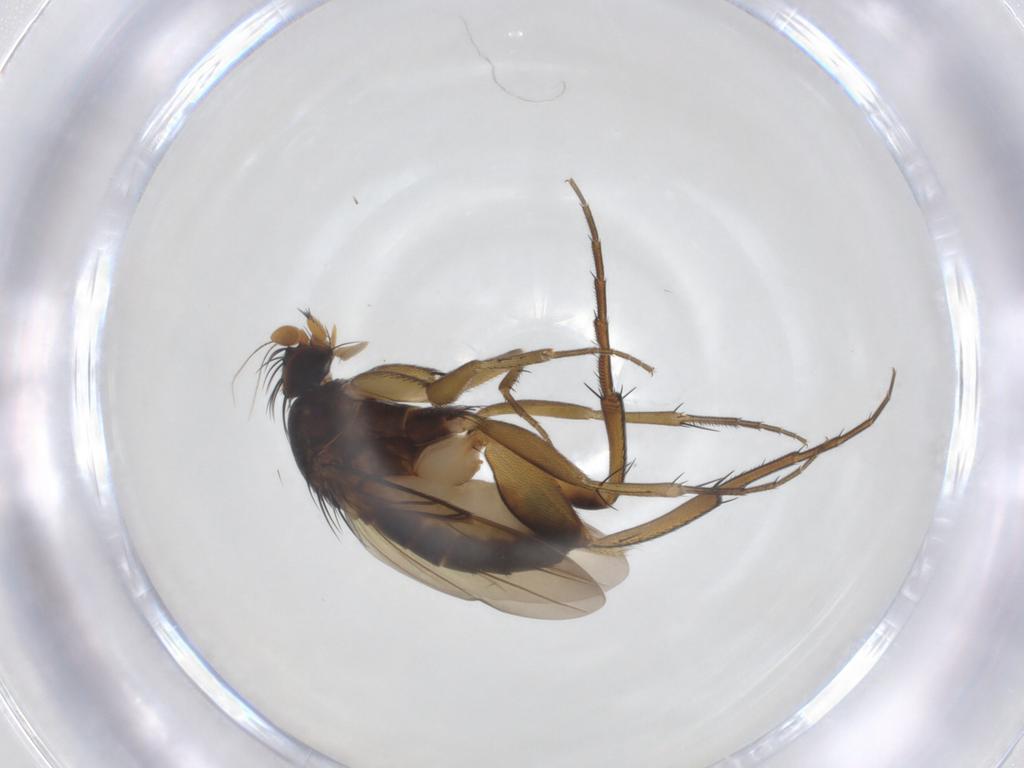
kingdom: Animalia
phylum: Arthropoda
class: Insecta
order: Diptera
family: Phoridae
